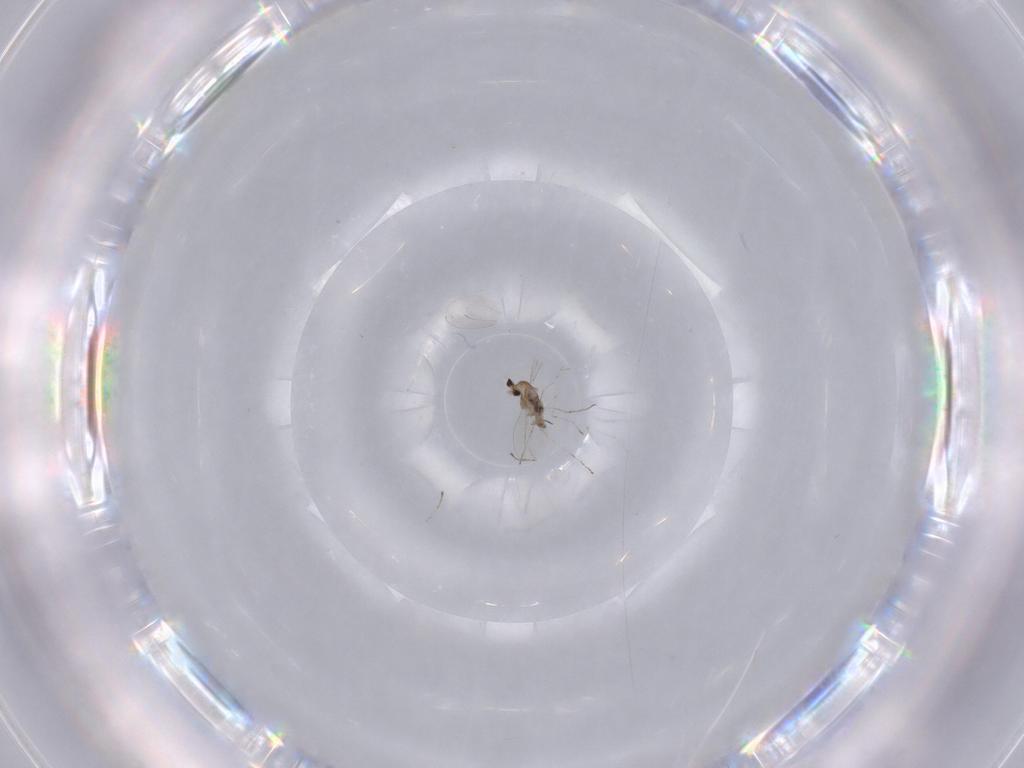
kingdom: Animalia
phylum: Arthropoda
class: Insecta
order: Diptera
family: Cecidomyiidae
